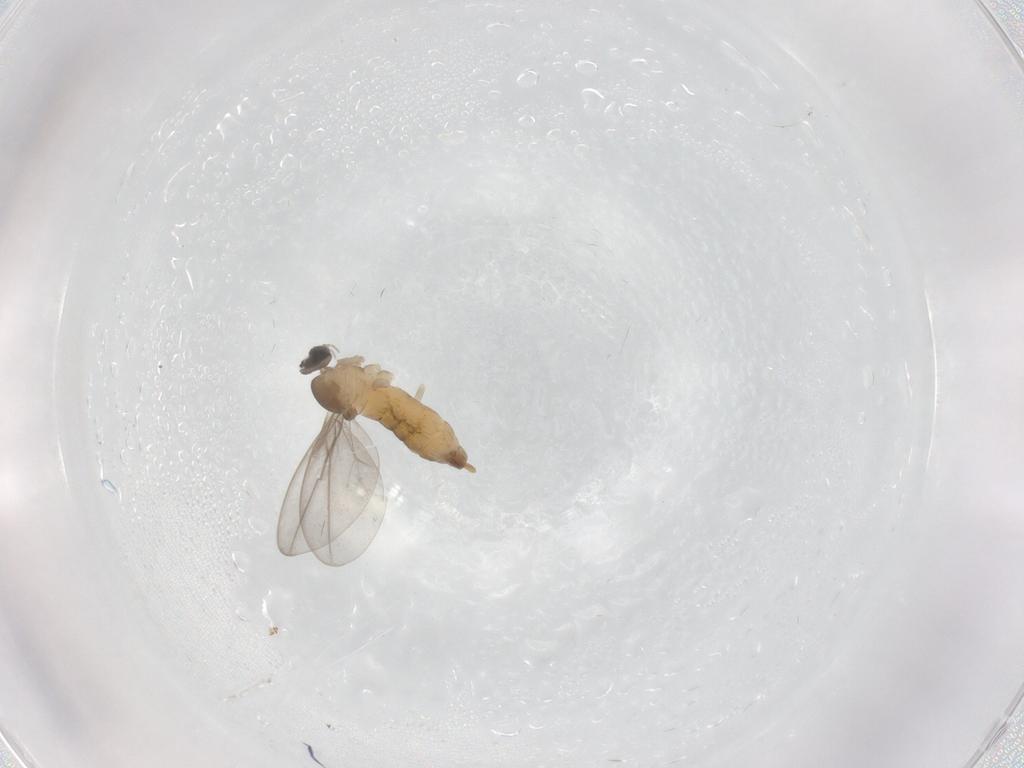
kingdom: Animalia
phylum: Arthropoda
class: Insecta
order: Diptera
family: Cecidomyiidae
